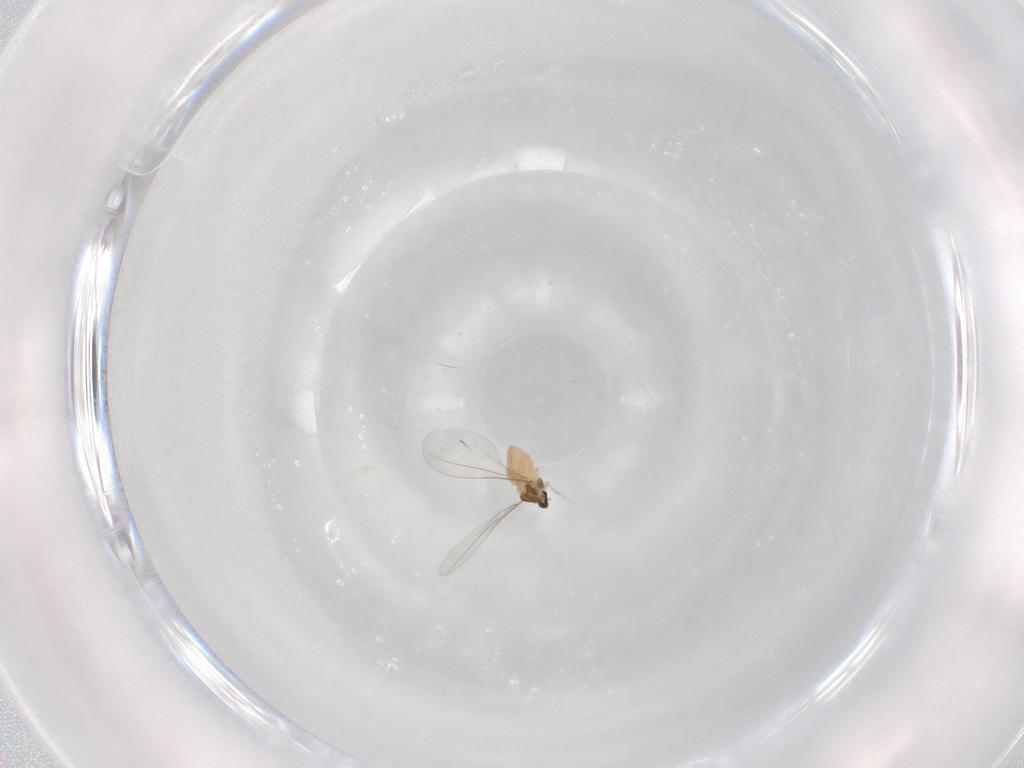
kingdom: Animalia
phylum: Arthropoda
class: Insecta
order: Diptera
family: Cecidomyiidae
